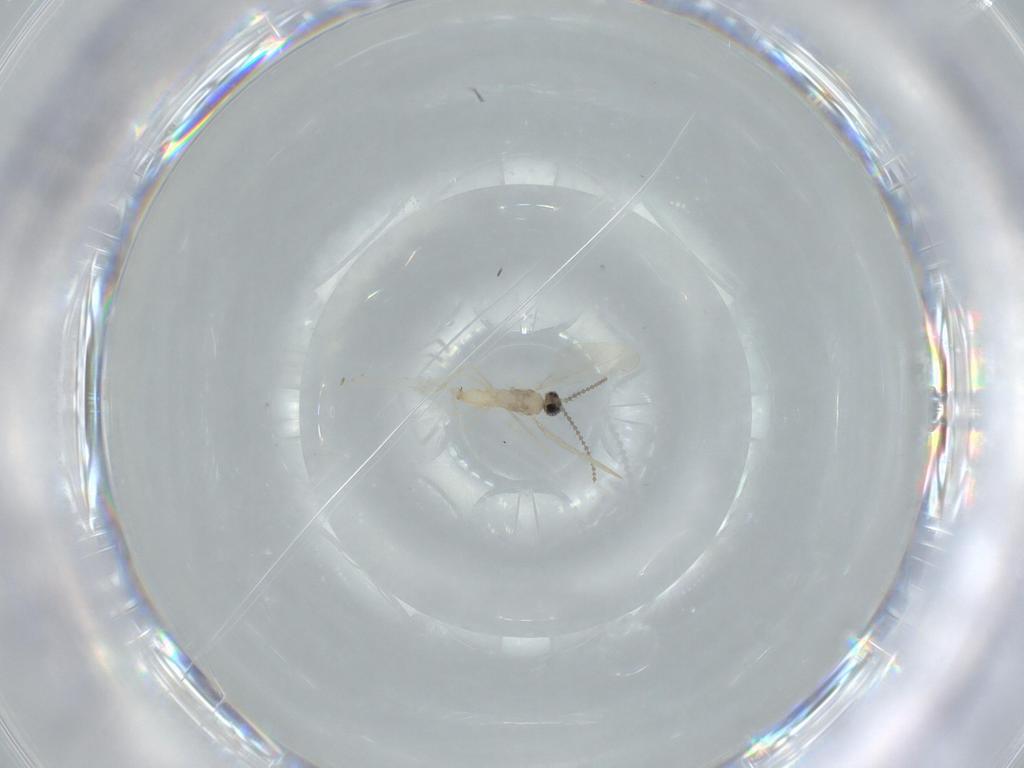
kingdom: Animalia
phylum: Arthropoda
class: Insecta
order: Diptera
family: Cecidomyiidae
